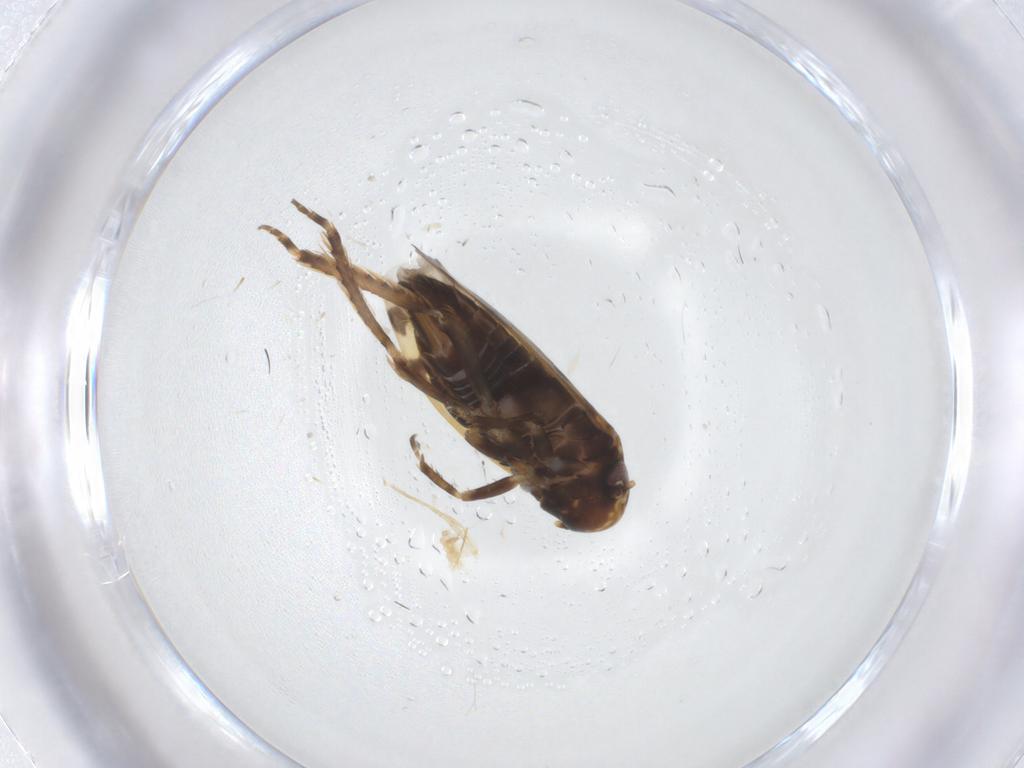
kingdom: Animalia
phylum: Arthropoda
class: Insecta
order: Hemiptera
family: Cicadellidae
